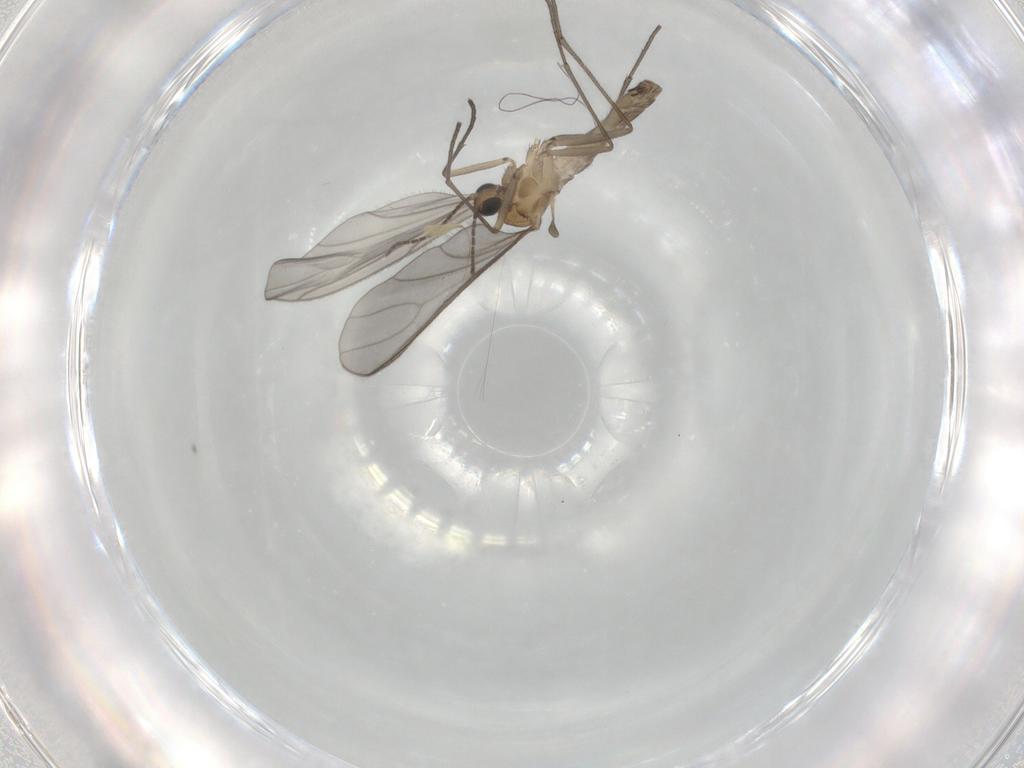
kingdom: Animalia
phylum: Arthropoda
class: Insecta
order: Diptera
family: Sciaridae
